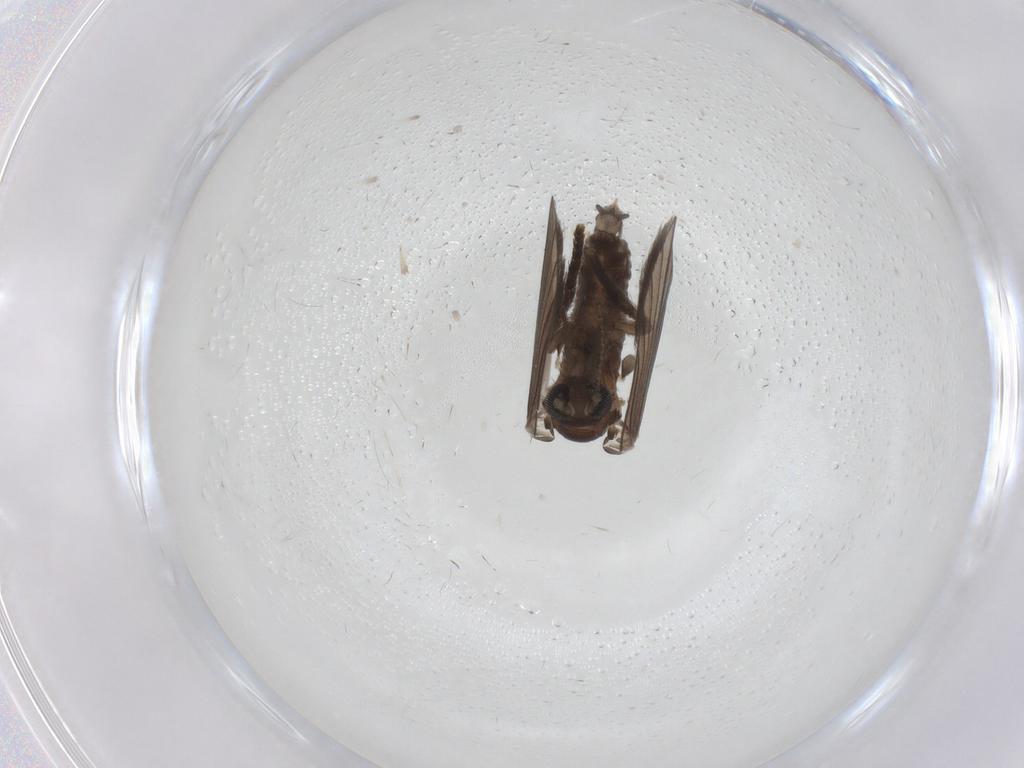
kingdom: Animalia
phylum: Arthropoda
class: Insecta
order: Diptera
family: Psychodidae
